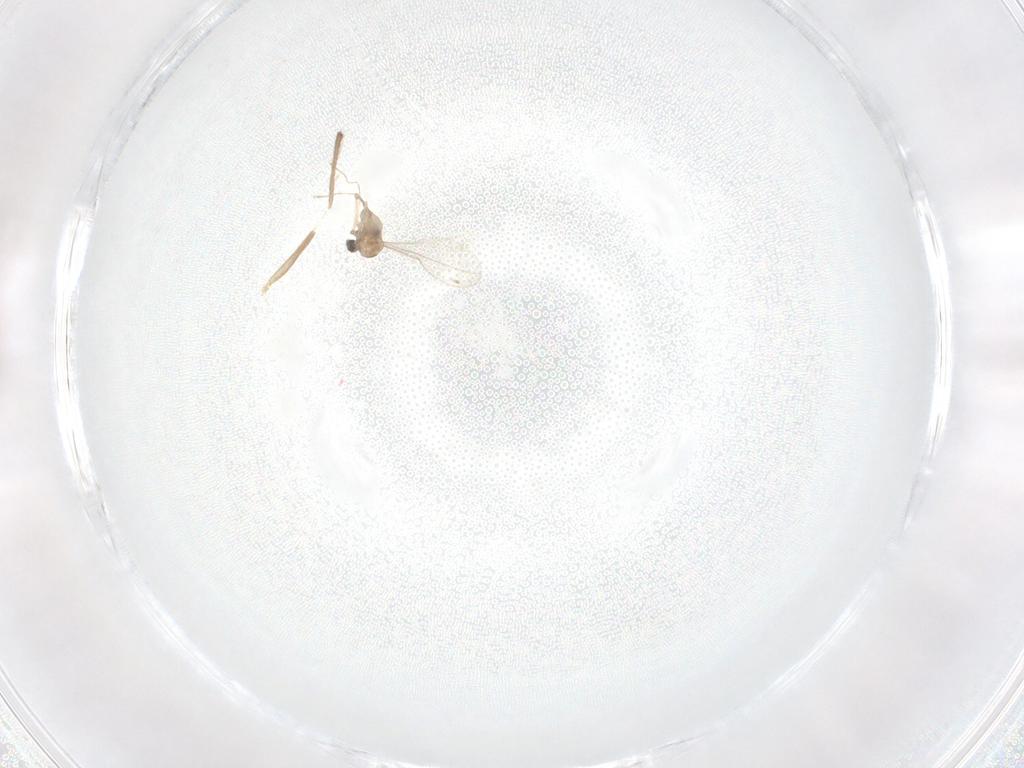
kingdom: Animalia
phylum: Arthropoda
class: Insecta
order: Diptera
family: Cecidomyiidae
